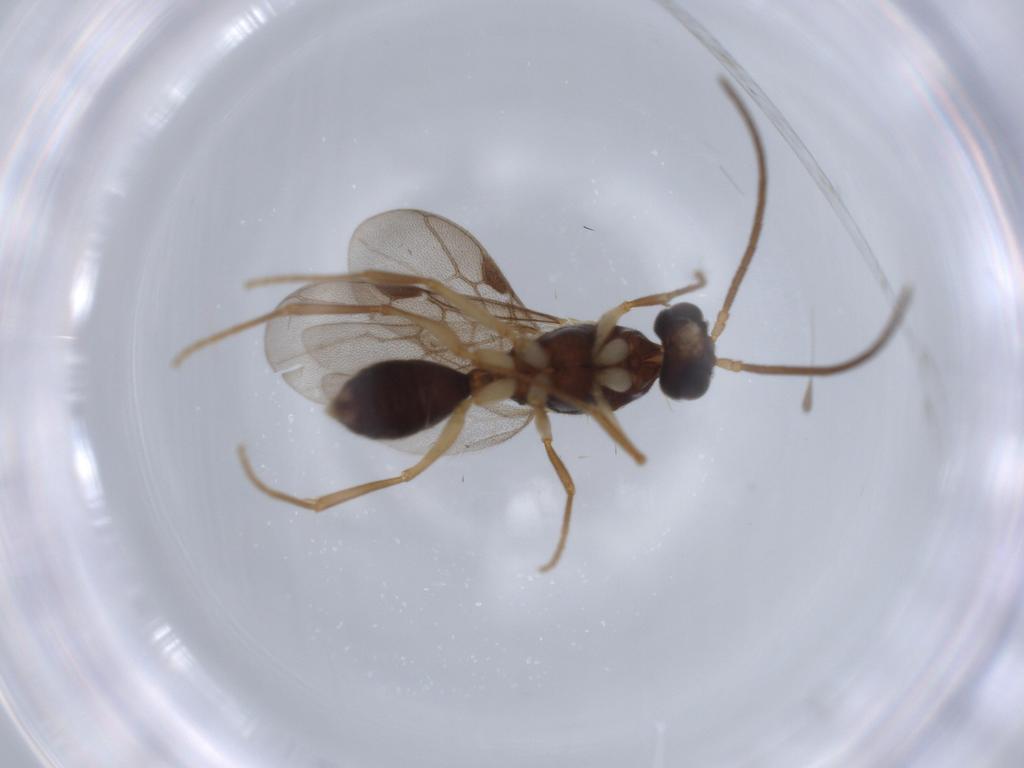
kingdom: Animalia
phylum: Arthropoda
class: Insecta
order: Hymenoptera
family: Formicidae
